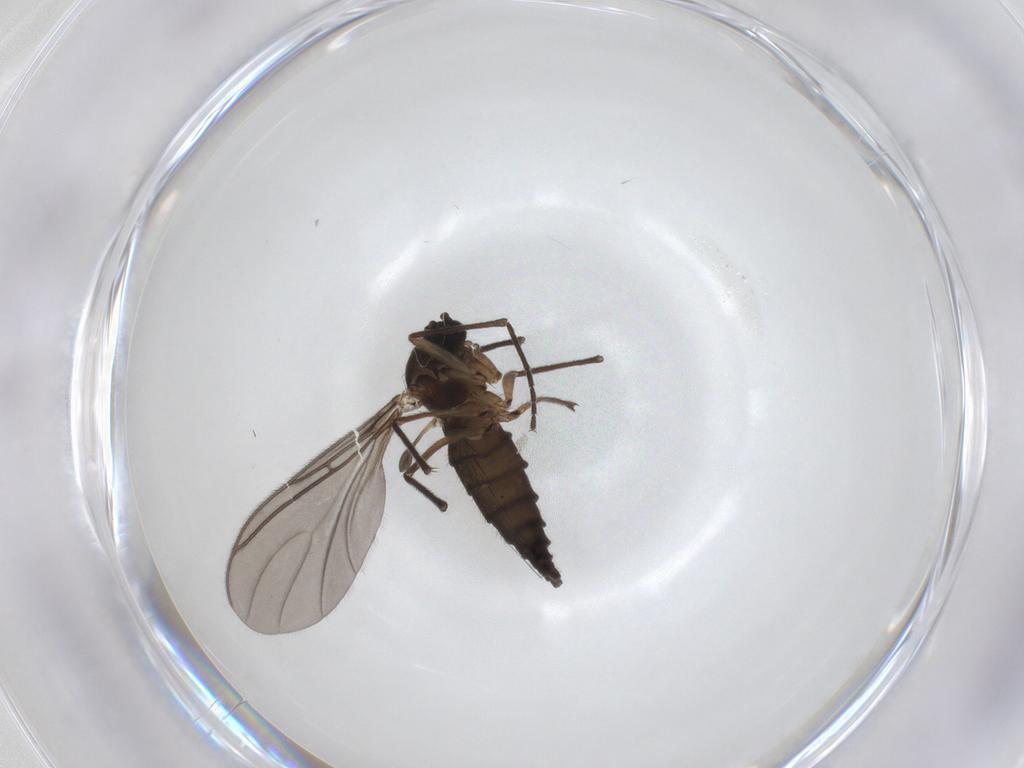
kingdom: Animalia
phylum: Arthropoda
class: Insecta
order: Diptera
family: Sciaridae
